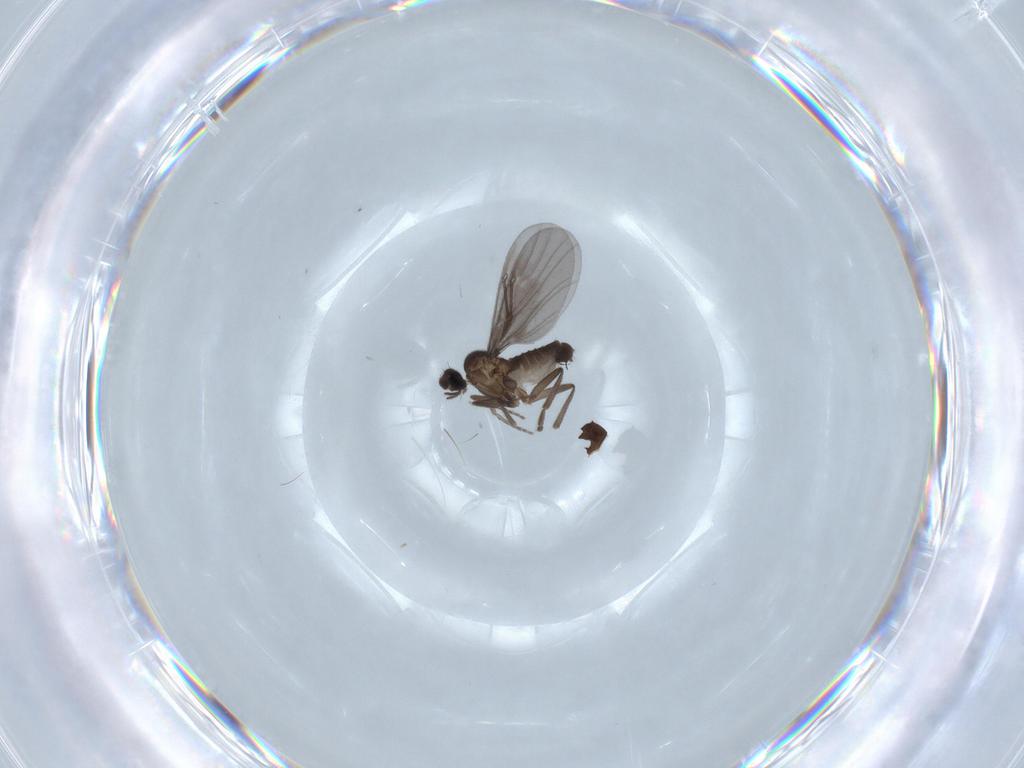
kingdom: Animalia
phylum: Arthropoda
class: Insecta
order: Diptera
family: Phoridae
